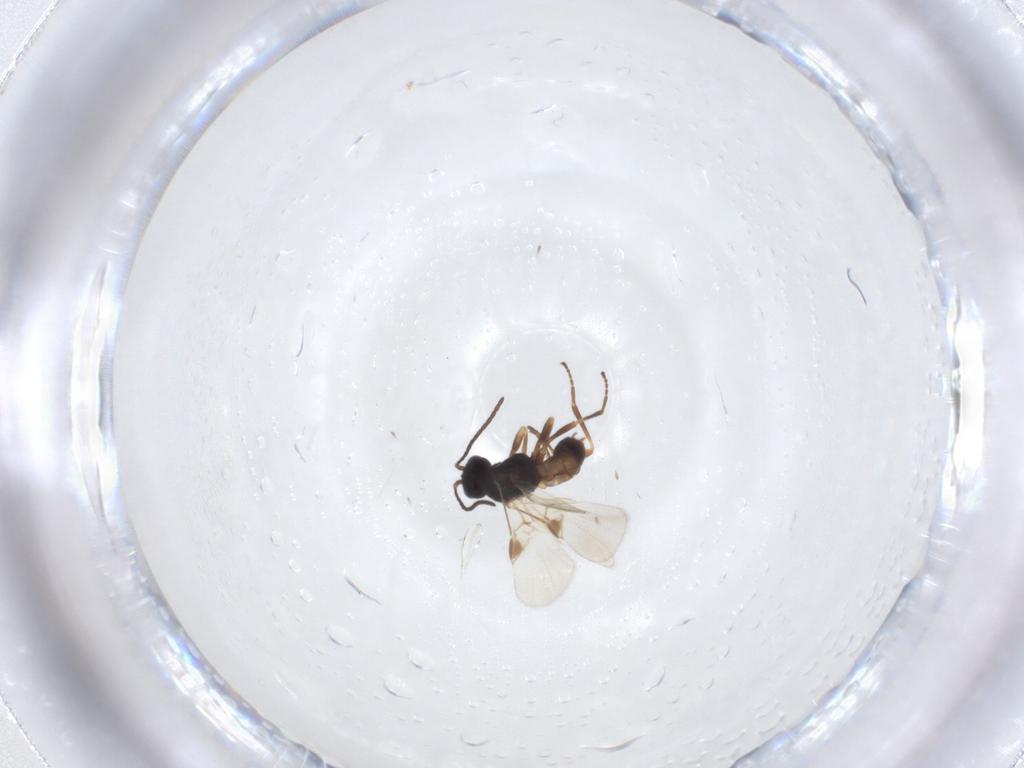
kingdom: Animalia
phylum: Arthropoda
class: Insecta
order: Hymenoptera
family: Braconidae
